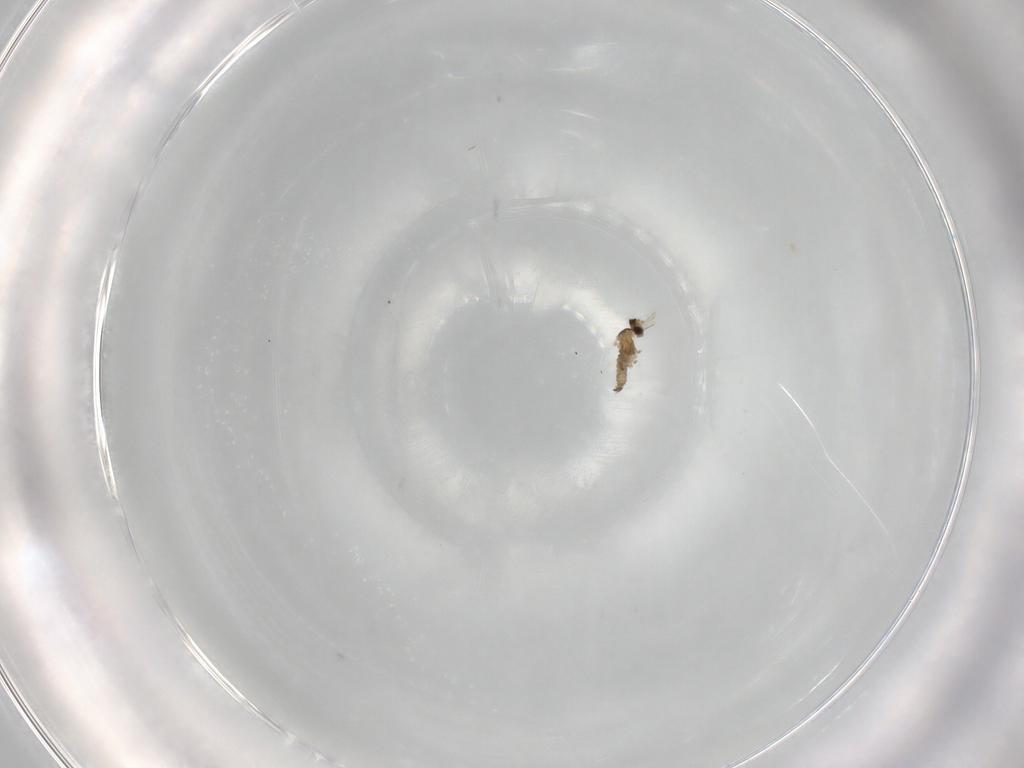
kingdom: Animalia
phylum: Arthropoda
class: Insecta
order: Diptera
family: Cecidomyiidae
